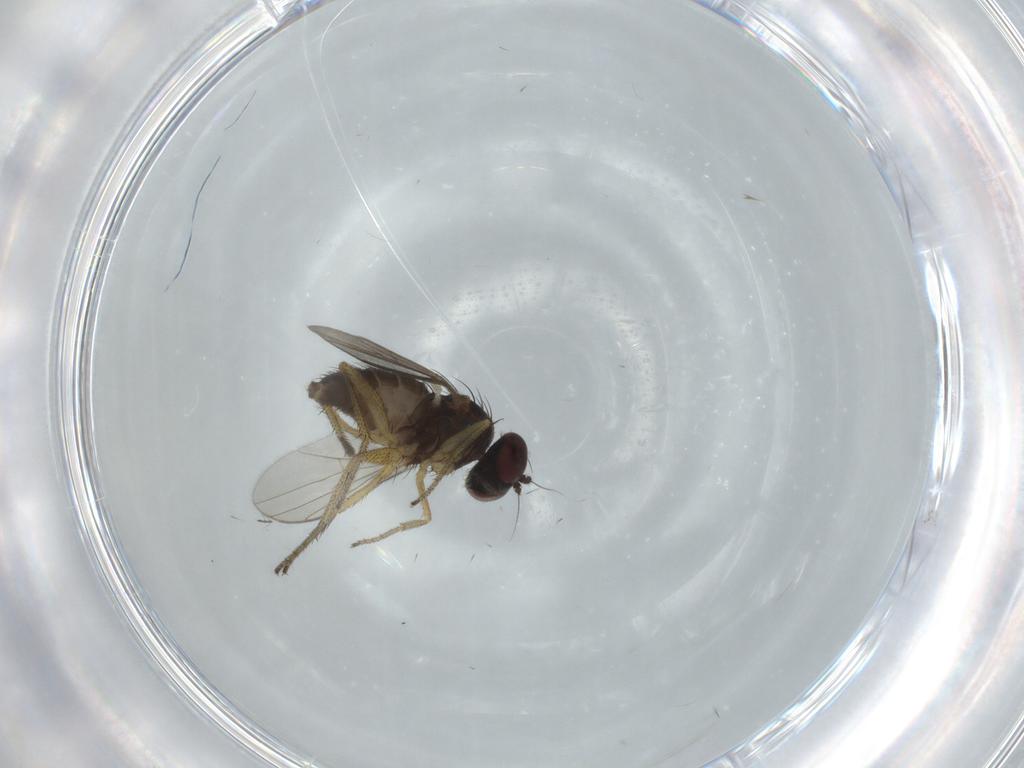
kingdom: Animalia
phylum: Arthropoda
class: Insecta
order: Diptera
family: Dolichopodidae
